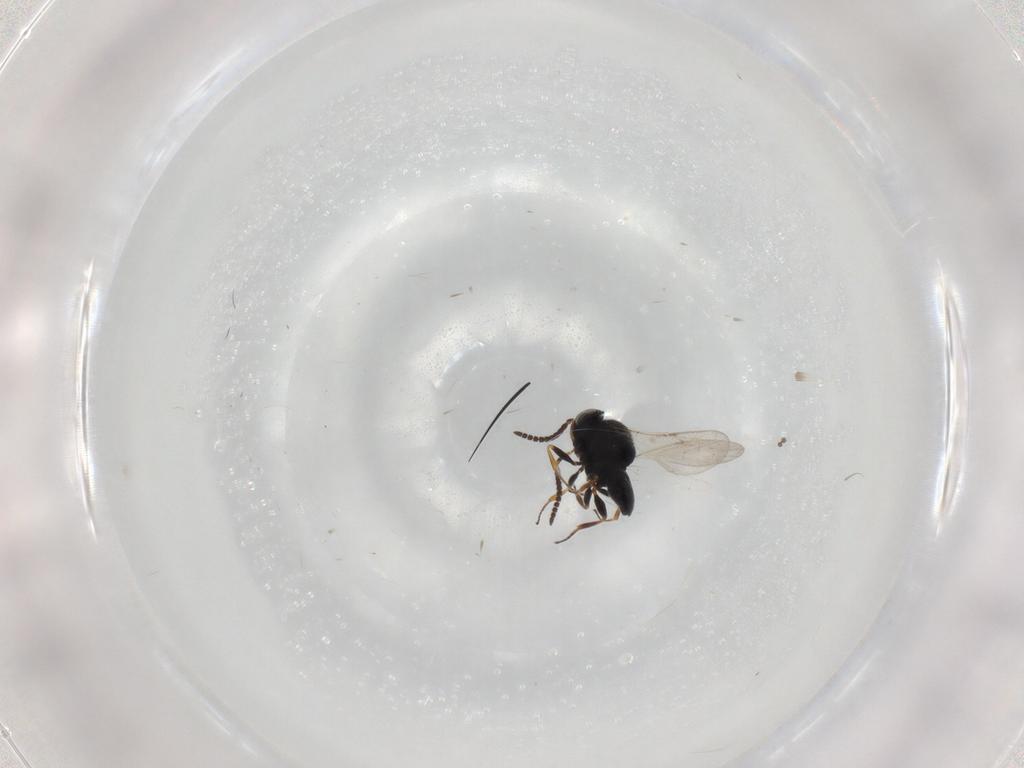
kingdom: Animalia
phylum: Arthropoda
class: Insecta
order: Coleoptera
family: Curculionidae
